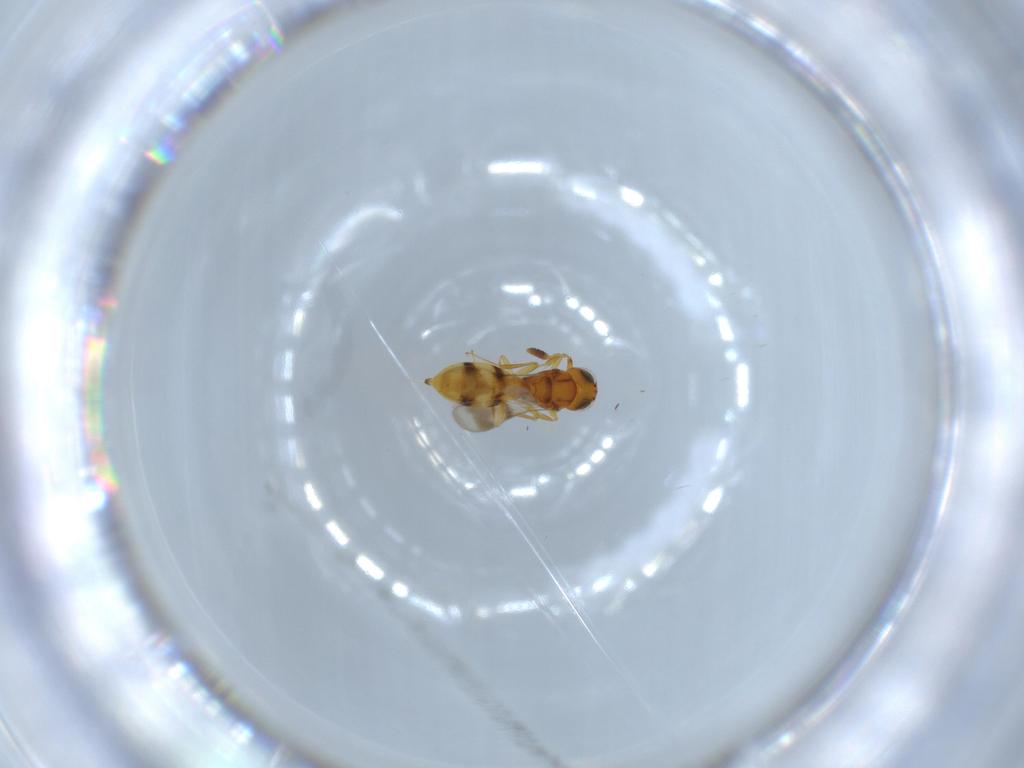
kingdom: Animalia
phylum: Arthropoda
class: Insecta
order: Hymenoptera
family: Scelionidae
